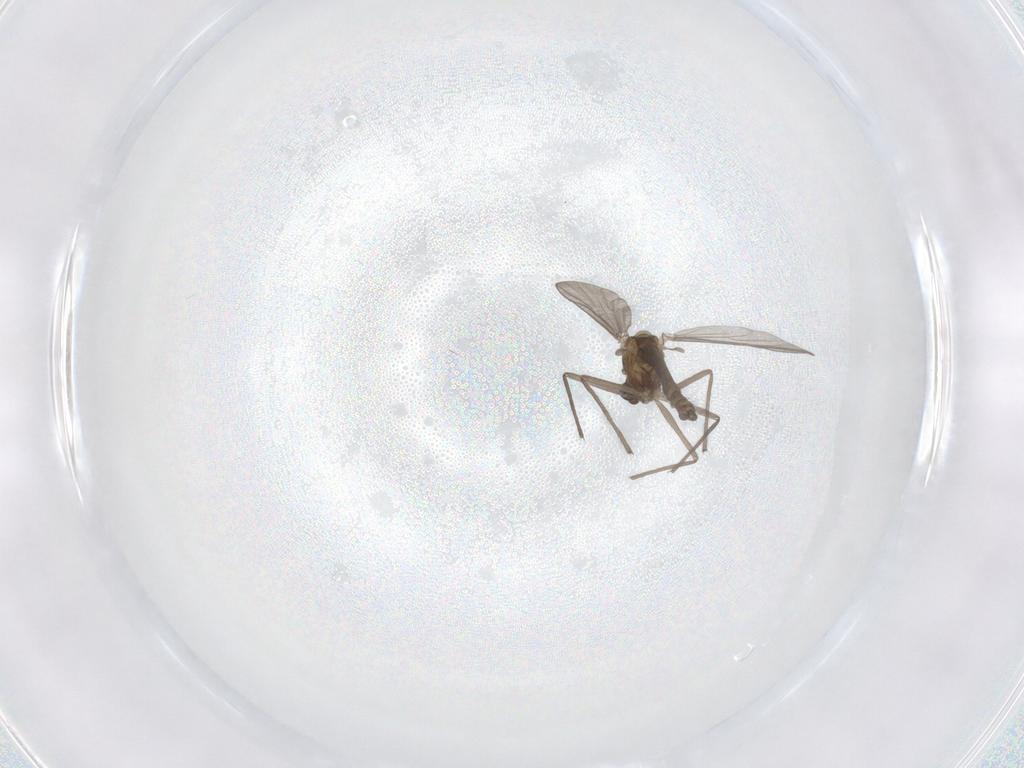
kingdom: Animalia
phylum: Arthropoda
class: Insecta
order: Diptera
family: Chironomidae
